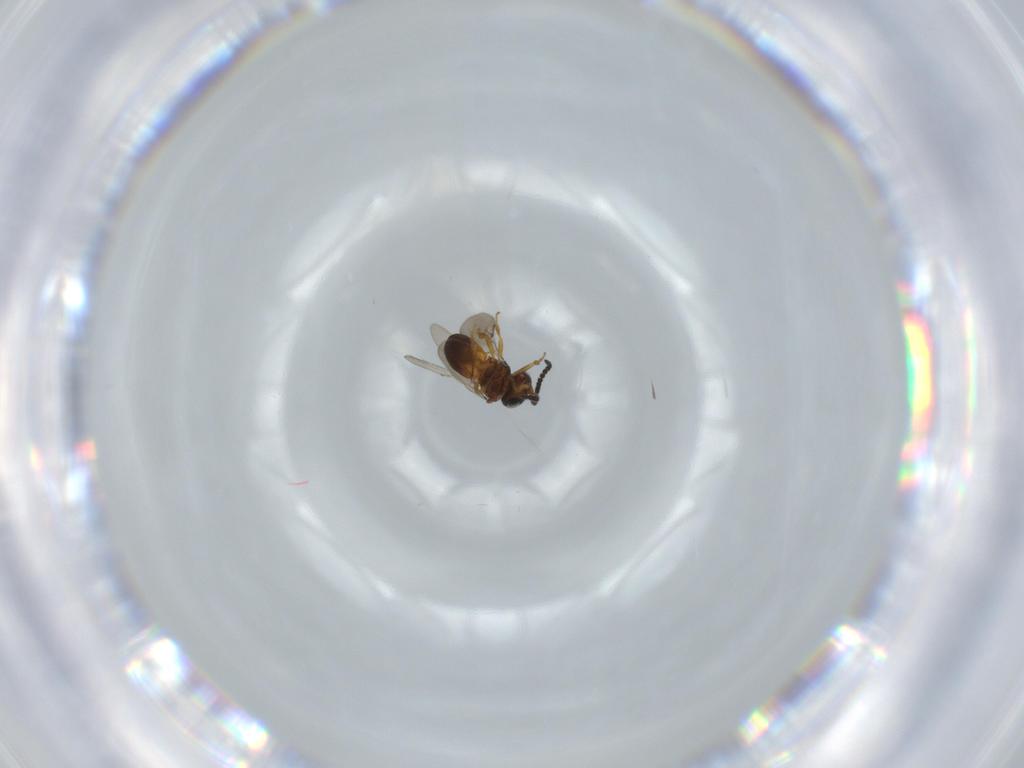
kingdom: Animalia
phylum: Arthropoda
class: Insecta
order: Hymenoptera
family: Scelionidae
